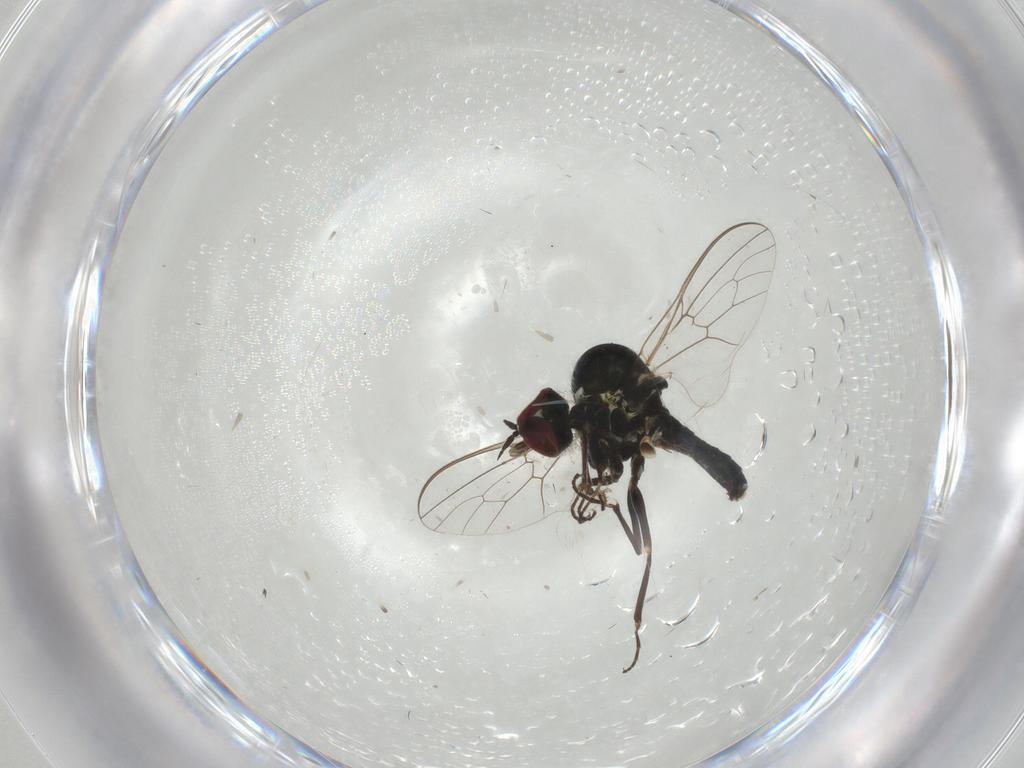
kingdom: Animalia
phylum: Arthropoda
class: Insecta
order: Diptera
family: Bombyliidae
